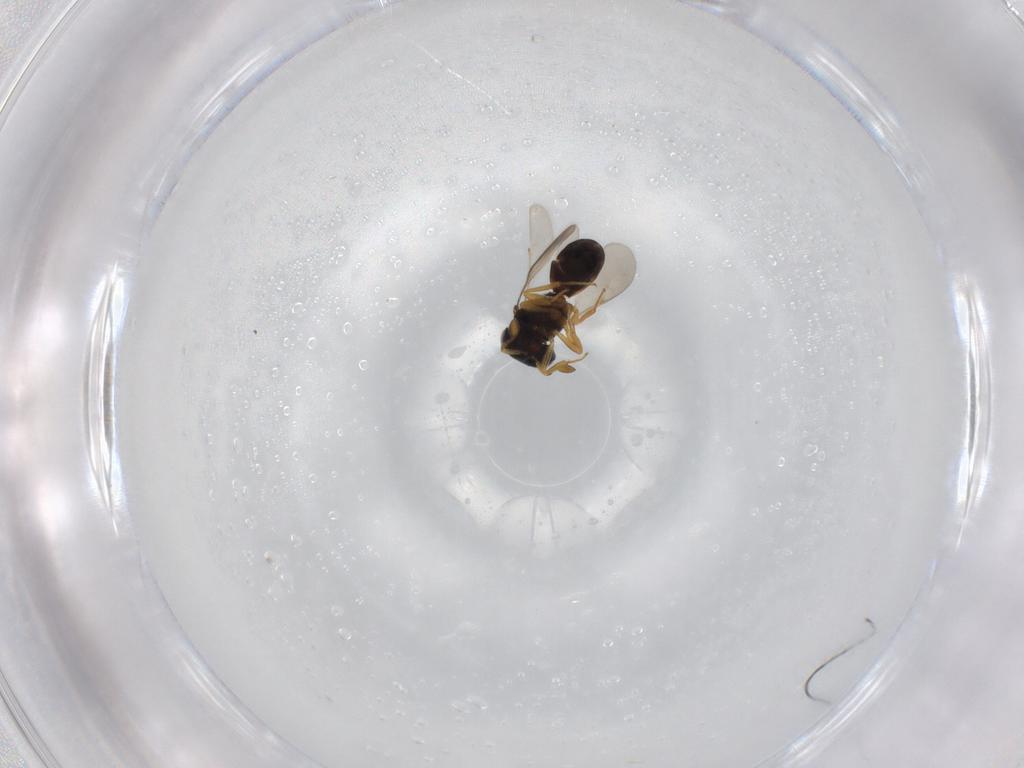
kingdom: Animalia
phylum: Arthropoda
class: Insecta
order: Hymenoptera
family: Scelionidae
